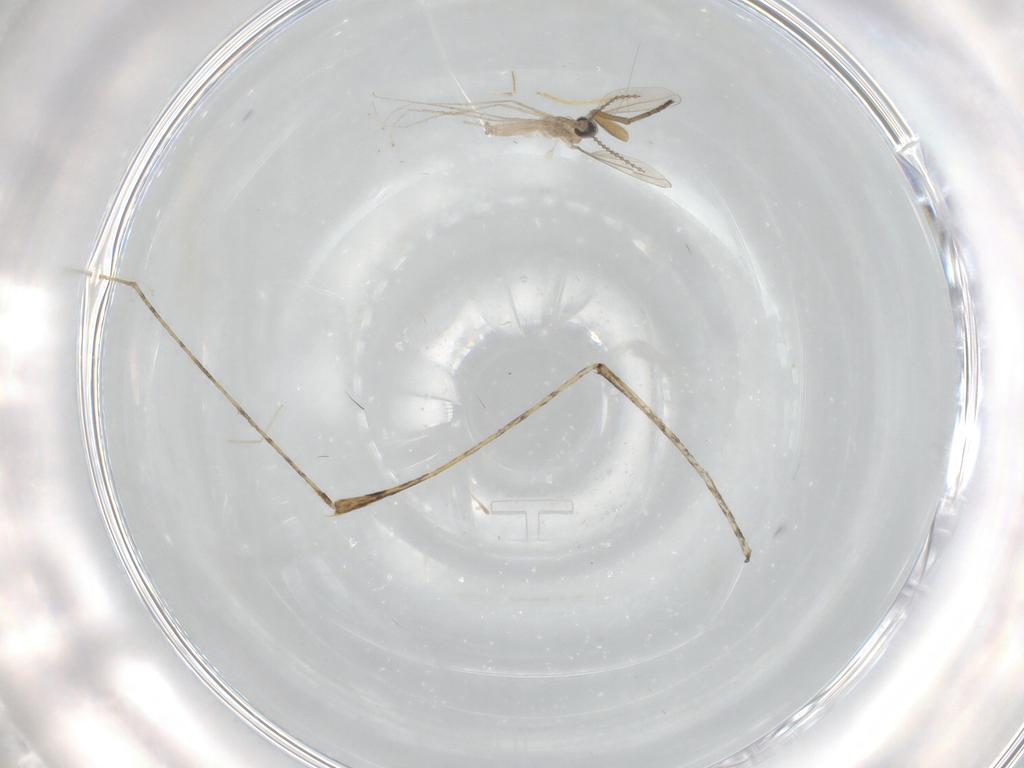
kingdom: Animalia
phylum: Arthropoda
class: Insecta
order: Diptera
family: Cecidomyiidae
